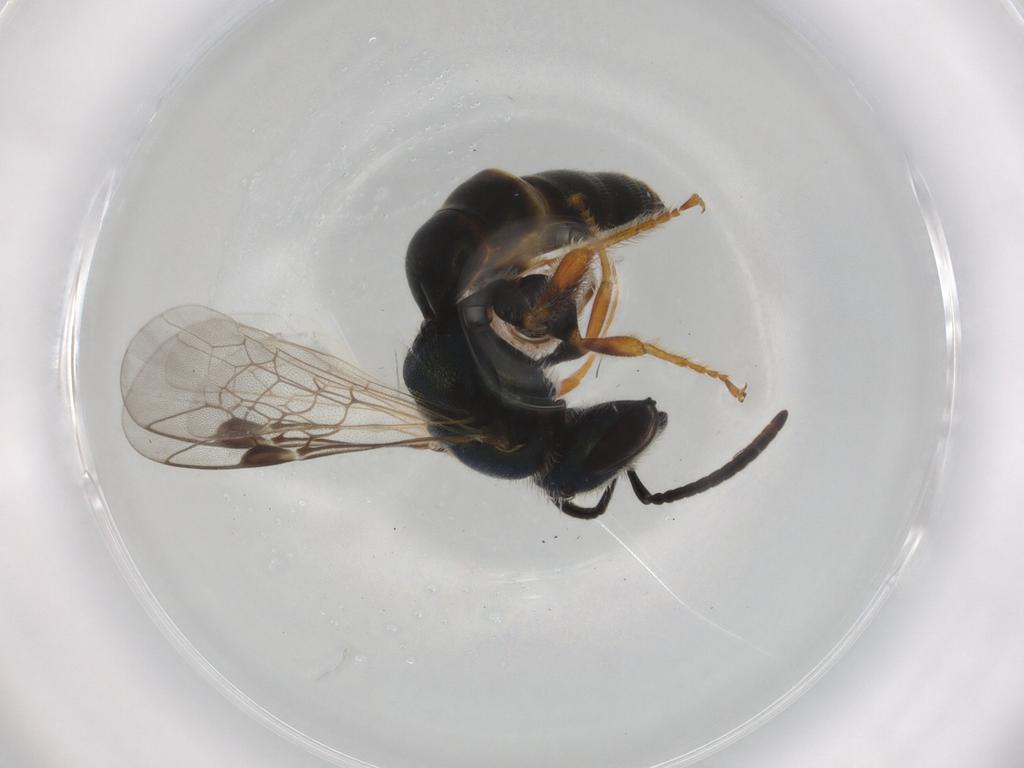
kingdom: Animalia
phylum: Arthropoda
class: Insecta
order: Hymenoptera
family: Halictidae
